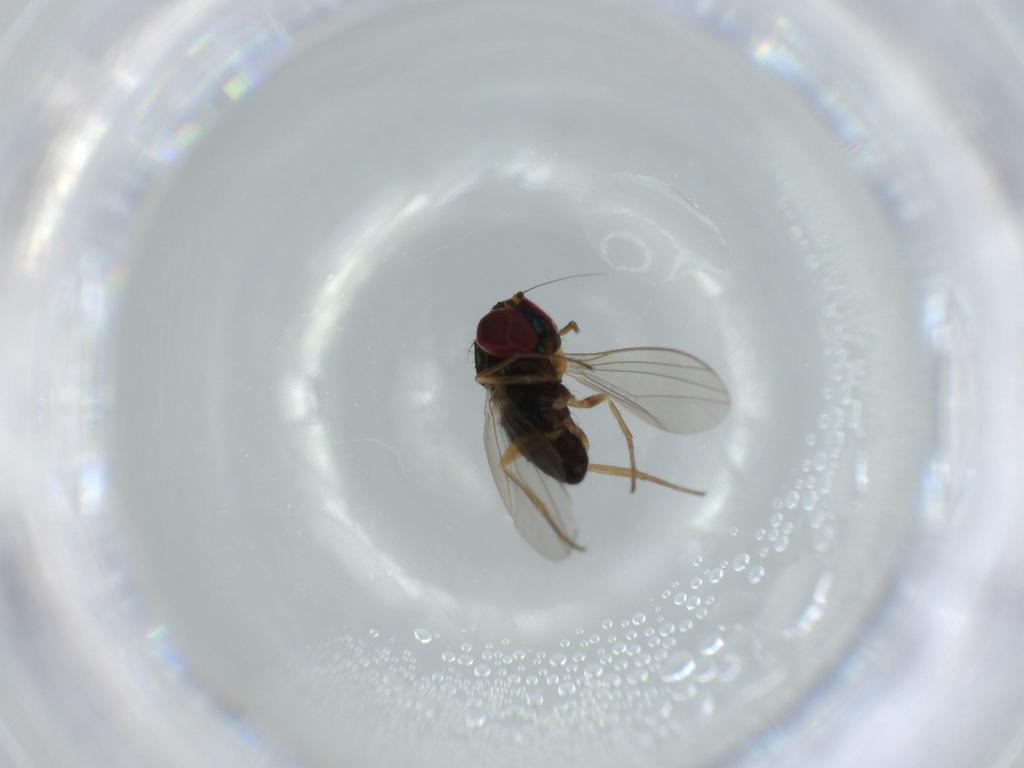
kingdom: Animalia
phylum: Arthropoda
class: Insecta
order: Diptera
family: Dolichopodidae
